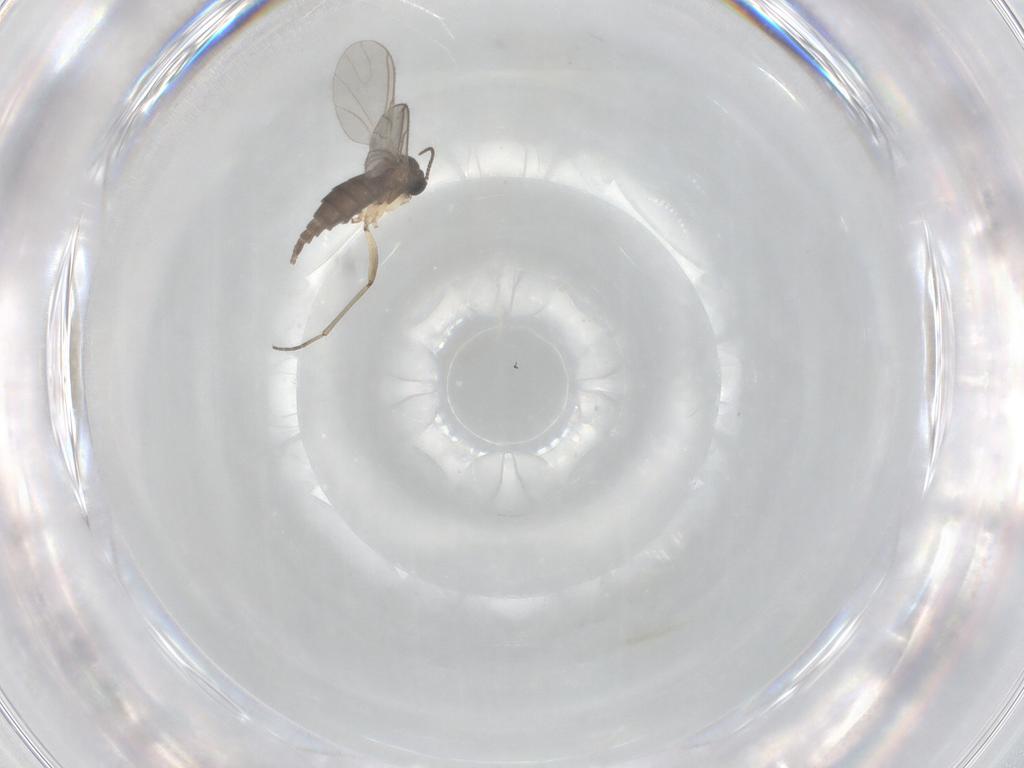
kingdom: Animalia
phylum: Arthropoda
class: Insecta
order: Diptera
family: Sciaridae
